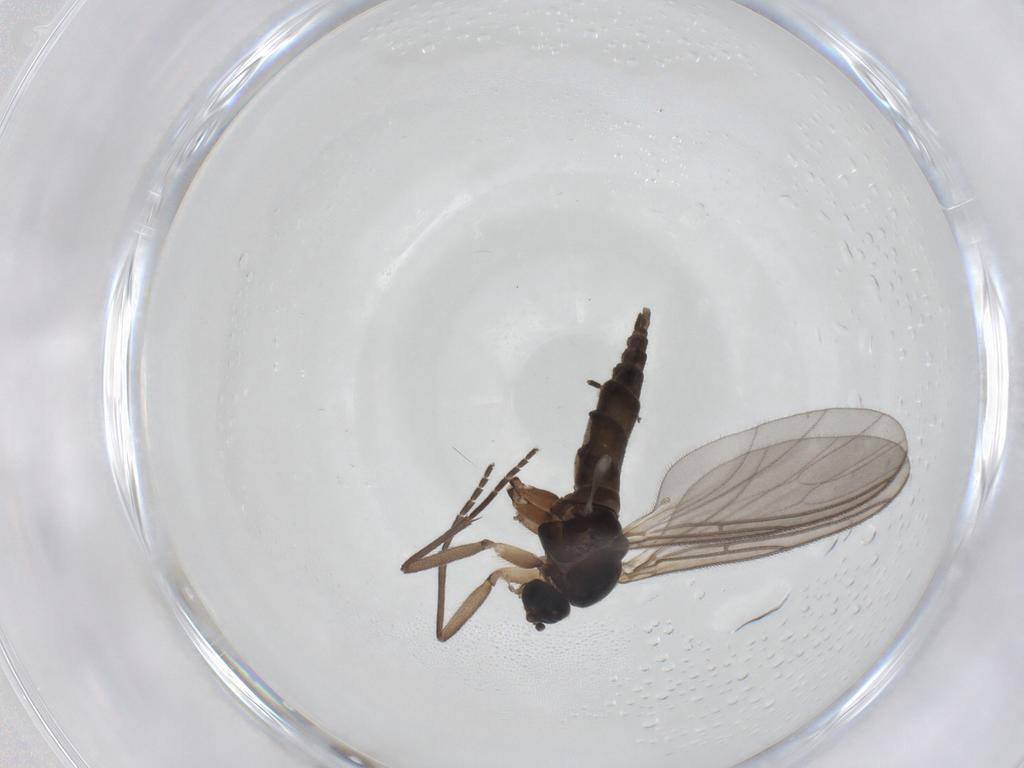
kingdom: Animalia
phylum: Arthropoda
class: Insecta
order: Diptera
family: Sciaridae
